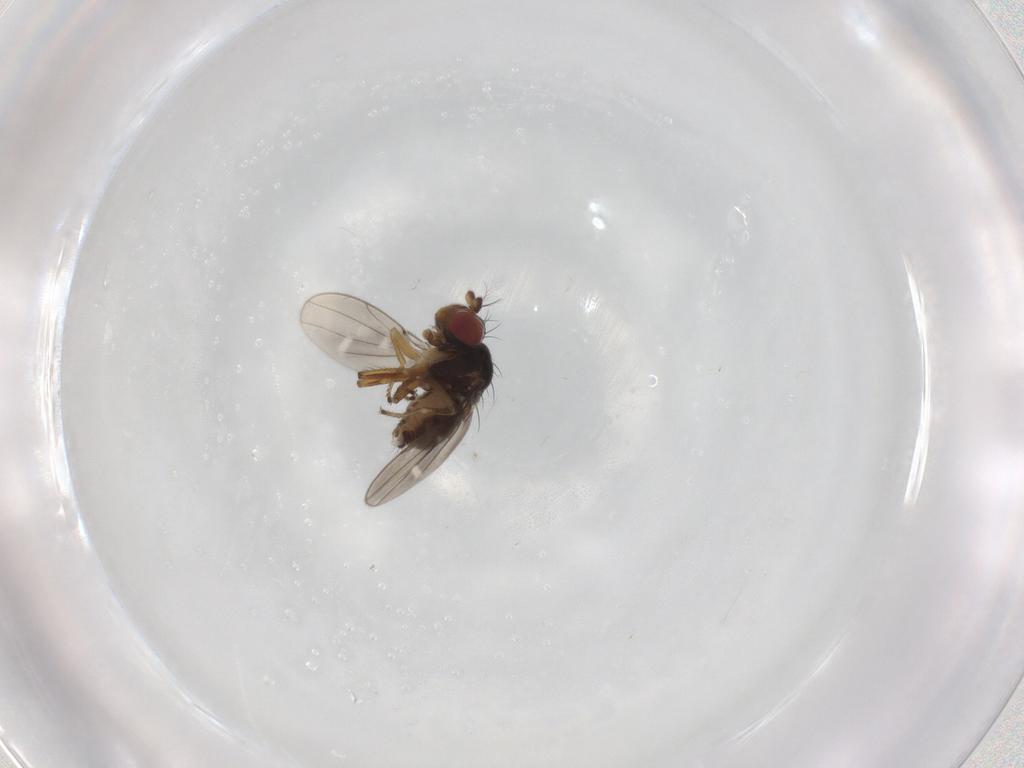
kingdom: Animalia
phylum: Arthropoda
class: Insecta
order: Diptera
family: Ephydridae
